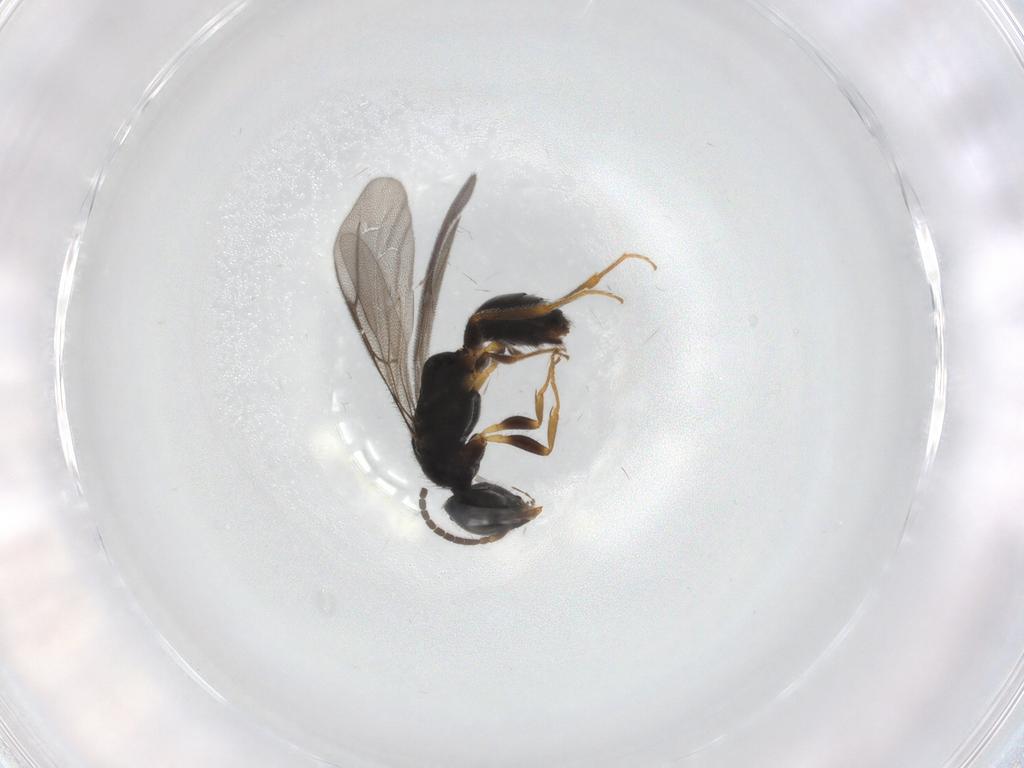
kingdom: Animalia
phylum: Arthropoda
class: Insecta
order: Hymenoptera
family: Bethylidae
